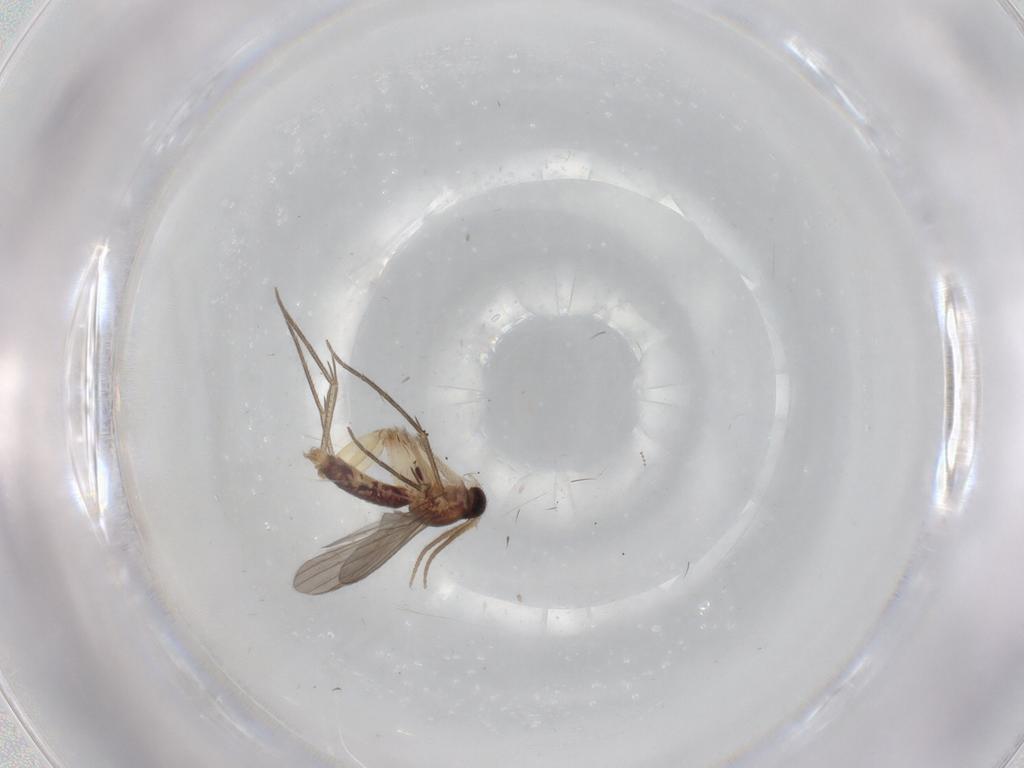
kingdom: Animalia
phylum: Arthropoda
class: Insecta
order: Diptera
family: Mycetophilidae
